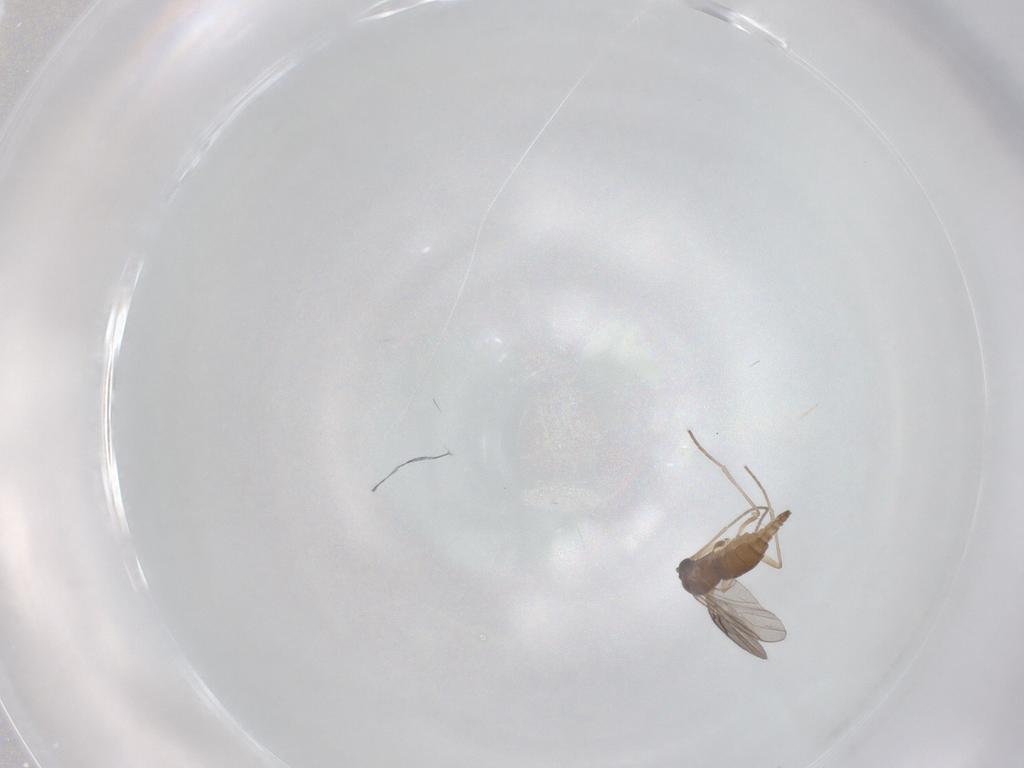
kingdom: Animalia
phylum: Arthropoda
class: Insecta
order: Diptera
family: Sciaridae
